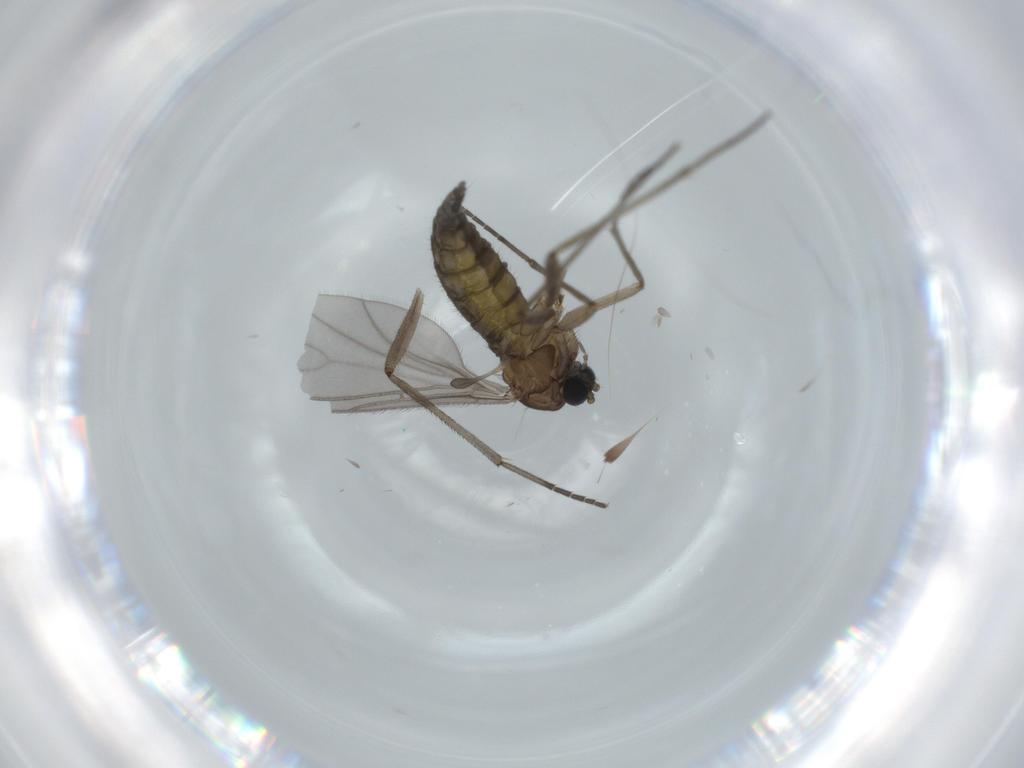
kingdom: Animalia
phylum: Arthropoda
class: Insecta
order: Diptera
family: Sciaridae
